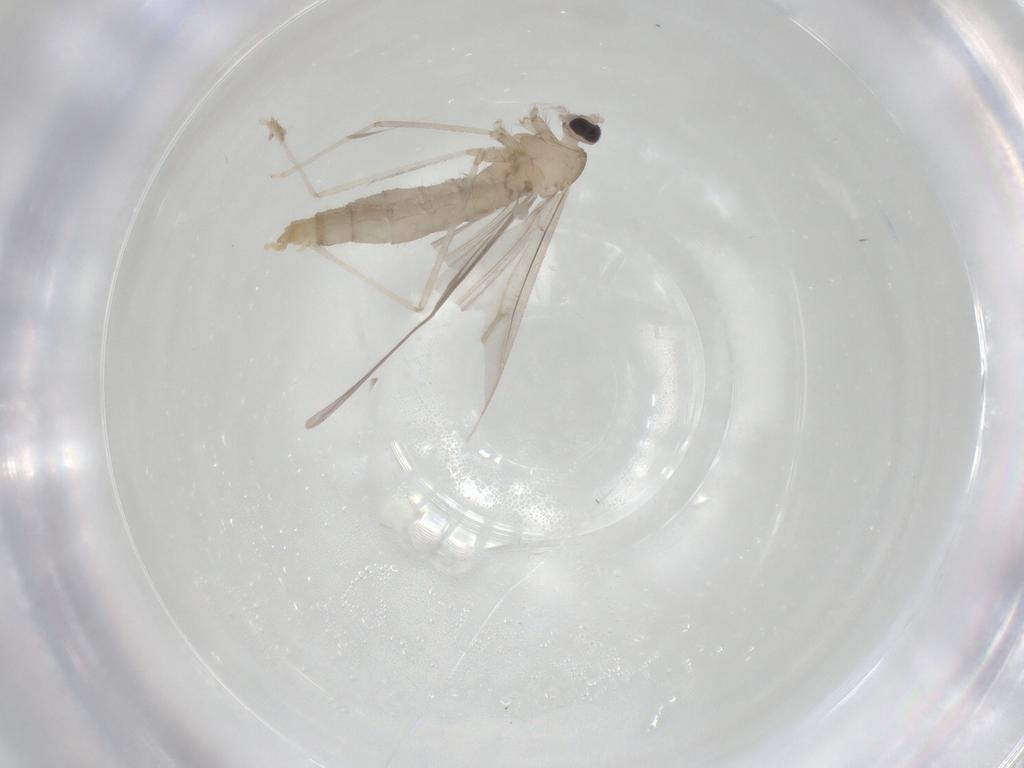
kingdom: Animalia
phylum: Arthropoda
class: Insecta
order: Diptera
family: Cecidomyiidae
